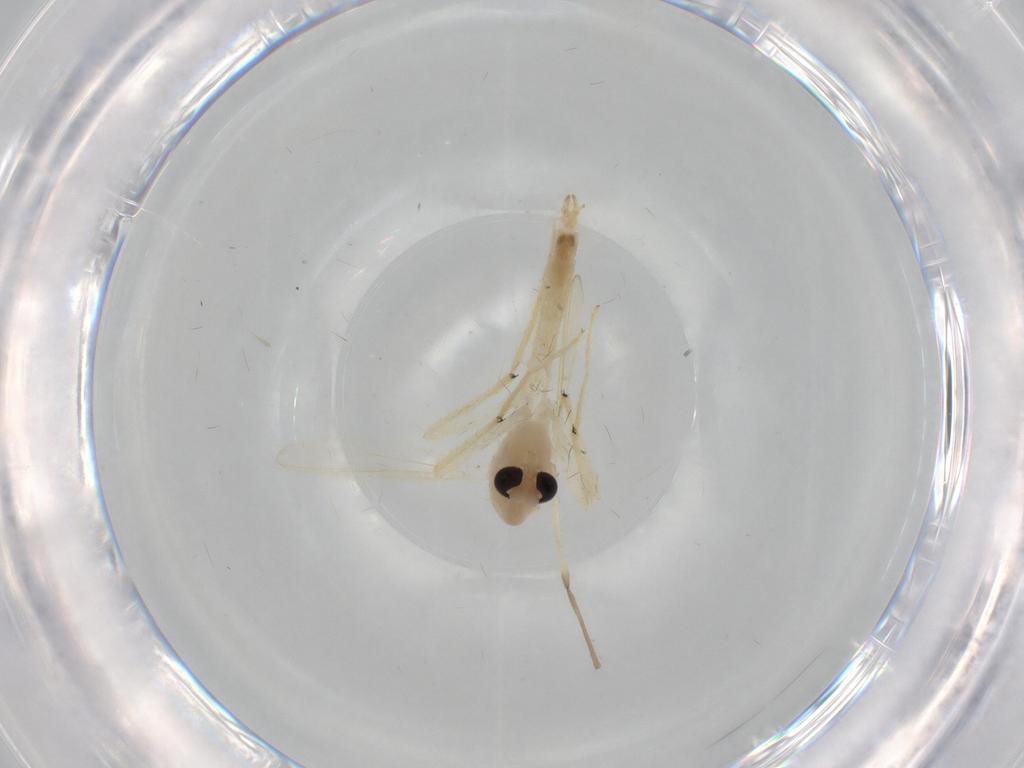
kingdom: Animalia
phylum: Arthropoda
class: Insecta
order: Diptera
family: Chironomidae
